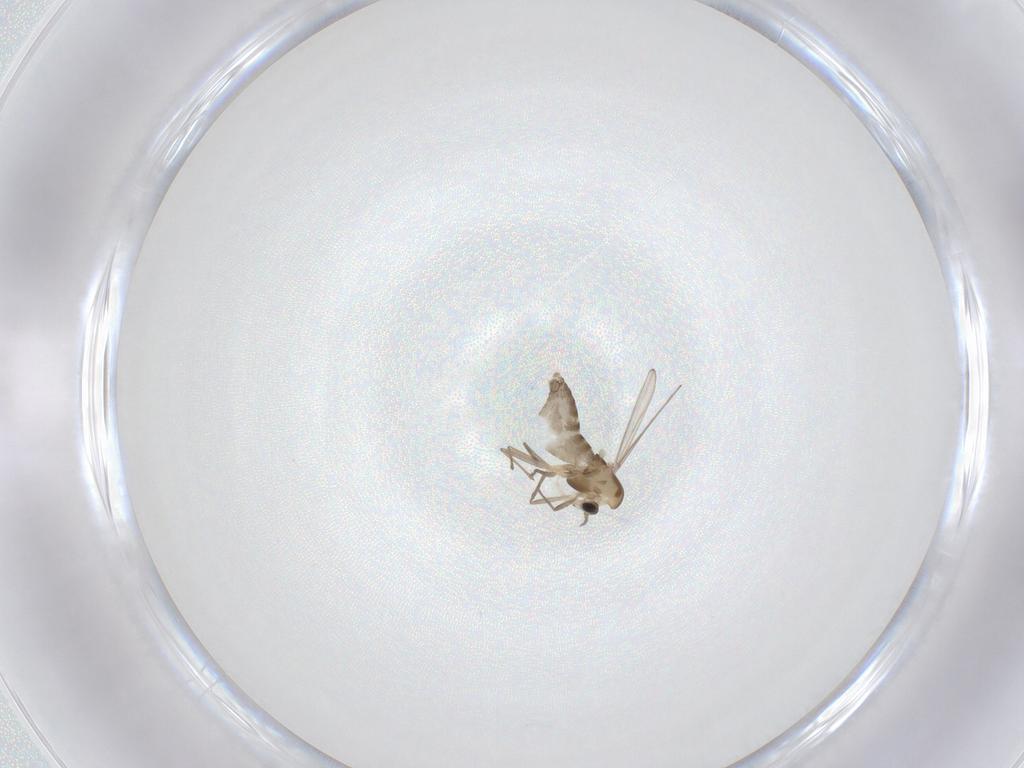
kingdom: Animalia
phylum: Arthropoda
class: Insecta
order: Diptera
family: Chironomidae
